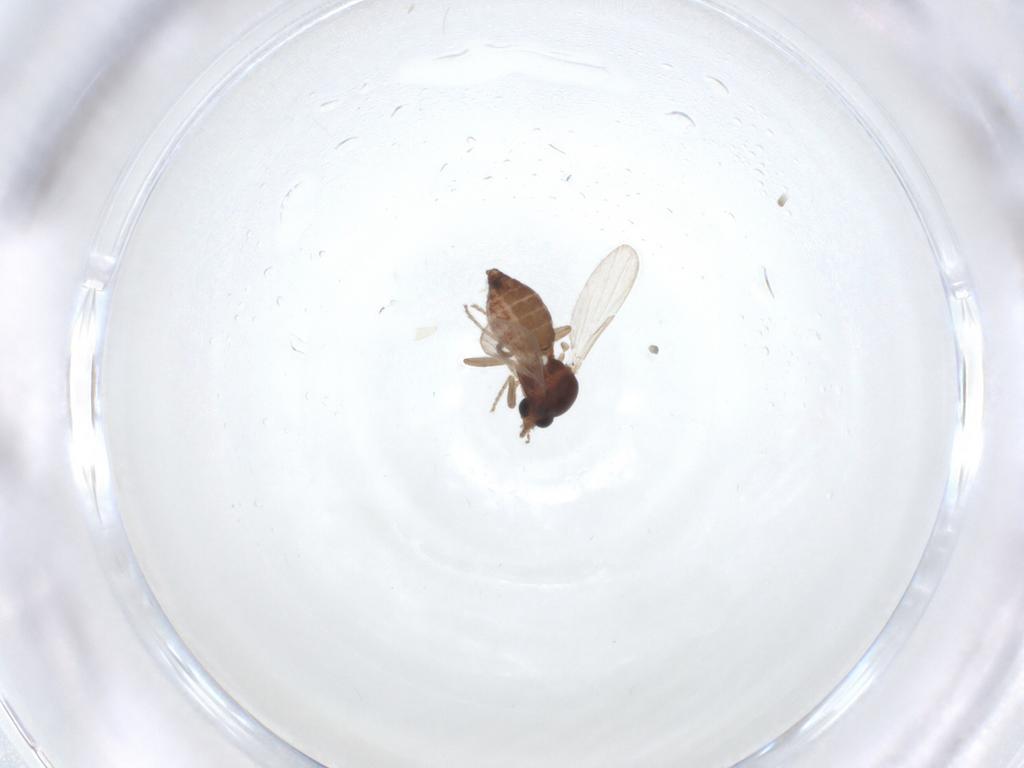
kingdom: Animalia
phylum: Arthropoda
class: Insecta
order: Diptera
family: Ceratopogonidae
